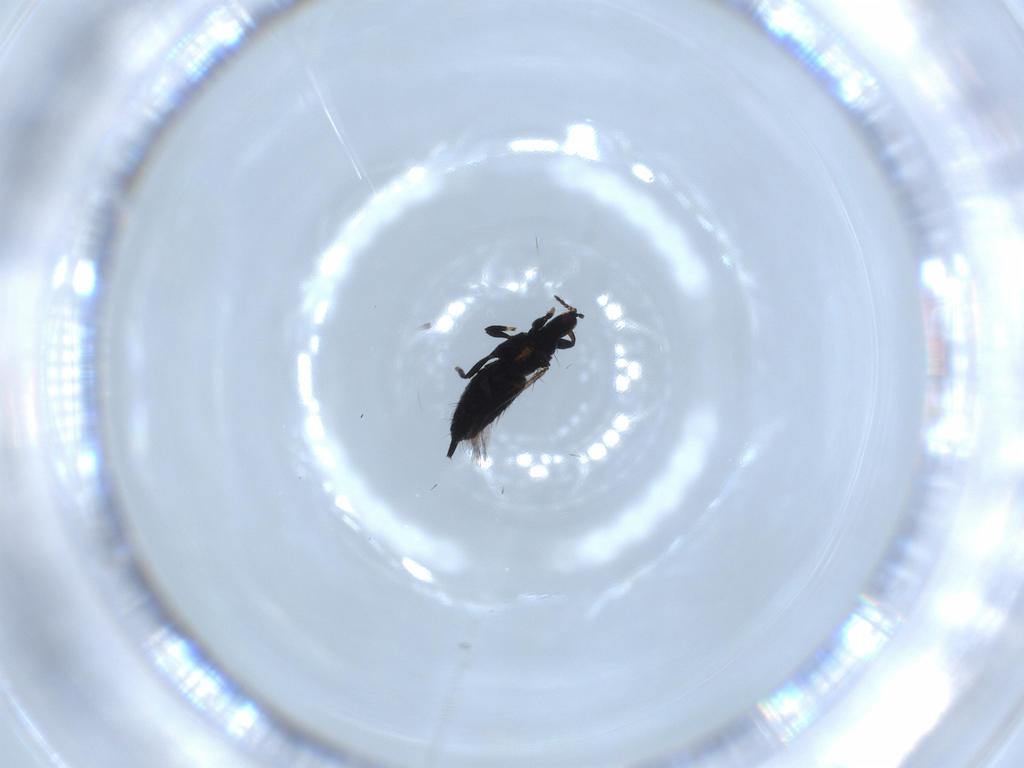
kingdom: Animalia
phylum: Arthropoda
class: Insecta
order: Thysanoptera
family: Phlaeothripidae
